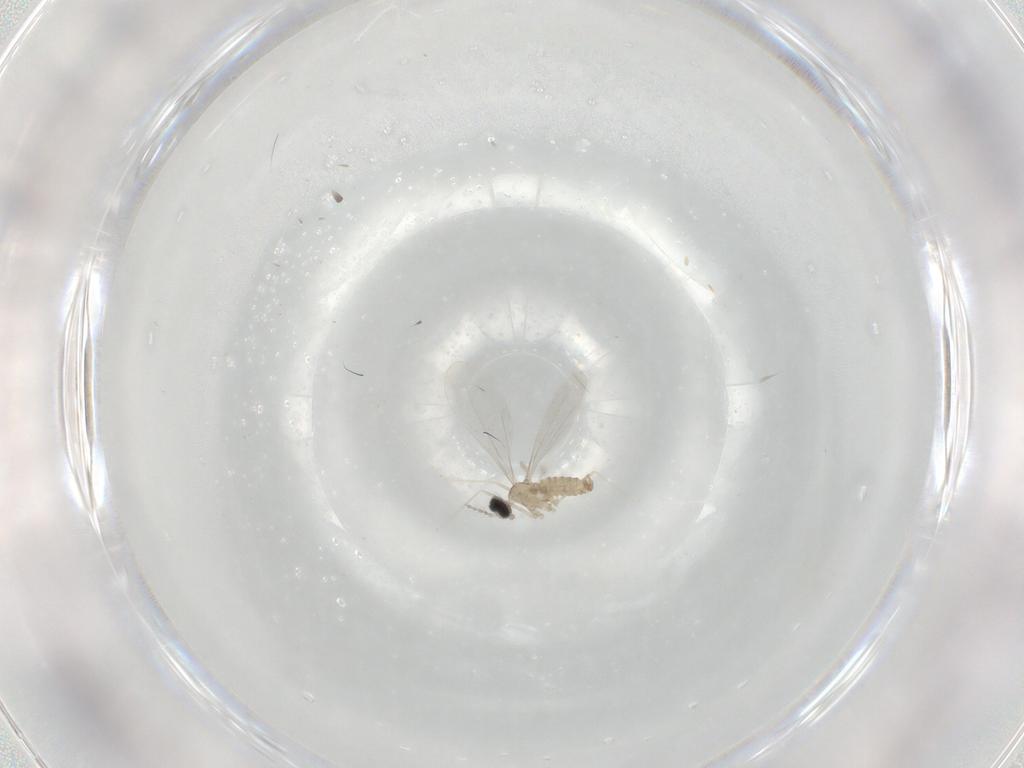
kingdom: Animalia
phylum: Arthropoda
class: Insecta
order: Diptera
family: Cecidomyiidae
